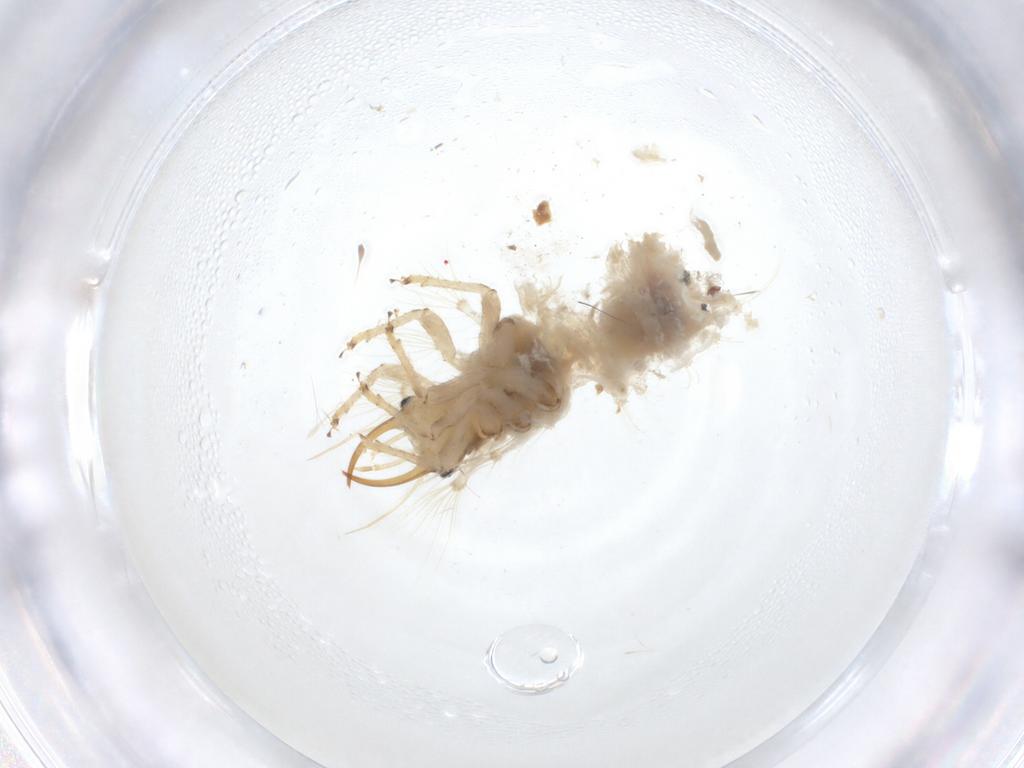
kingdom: Animalia
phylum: Arthropoda
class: Insecta
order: Neuroptera
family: Chrysopidae
